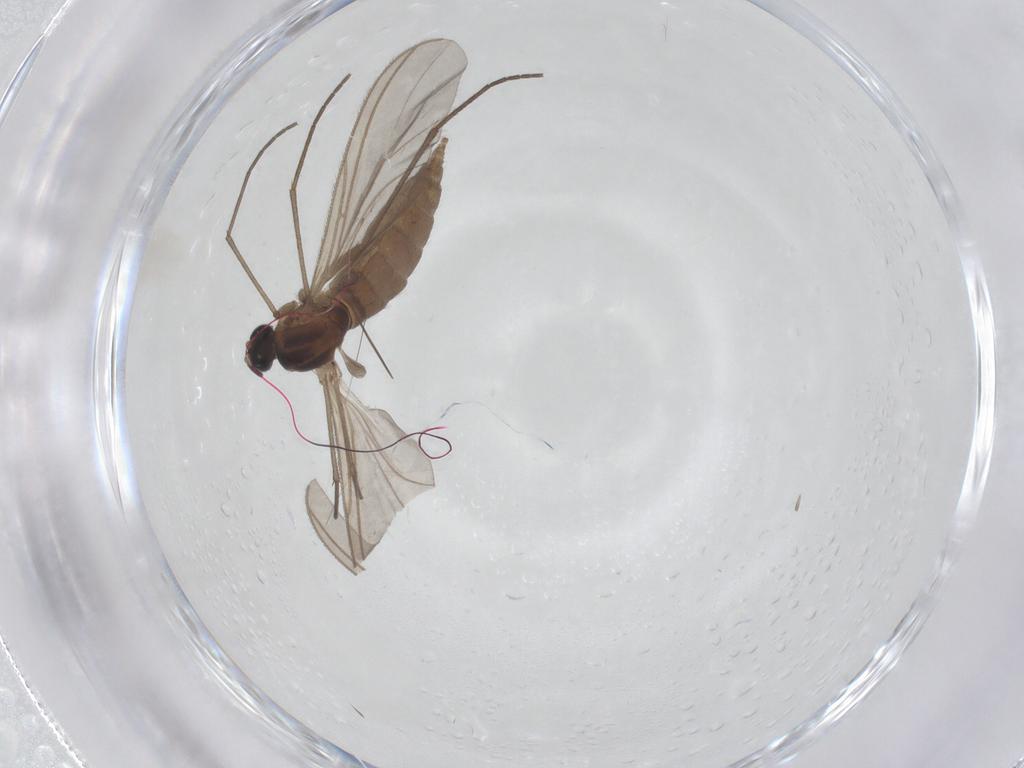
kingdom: Animalia
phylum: Arthropoda
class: Insecta
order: Diptera
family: Sciaridae
